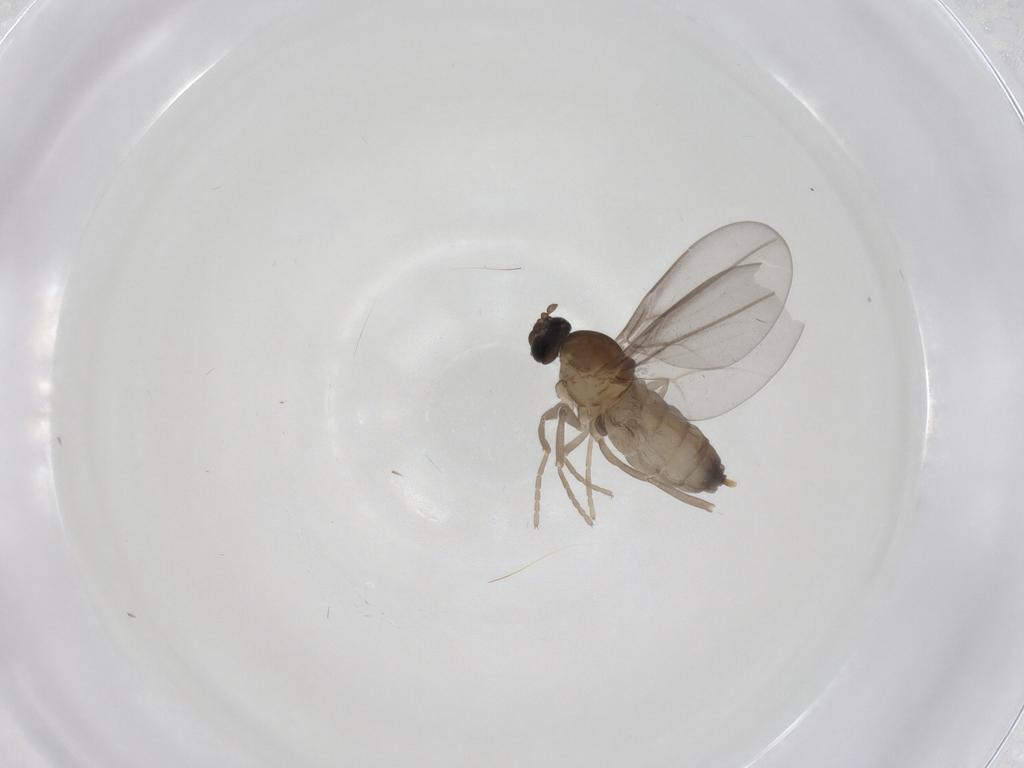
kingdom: Animalia
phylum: Arthropoda
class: Insecta
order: Diptera
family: Cecidomyiidae
